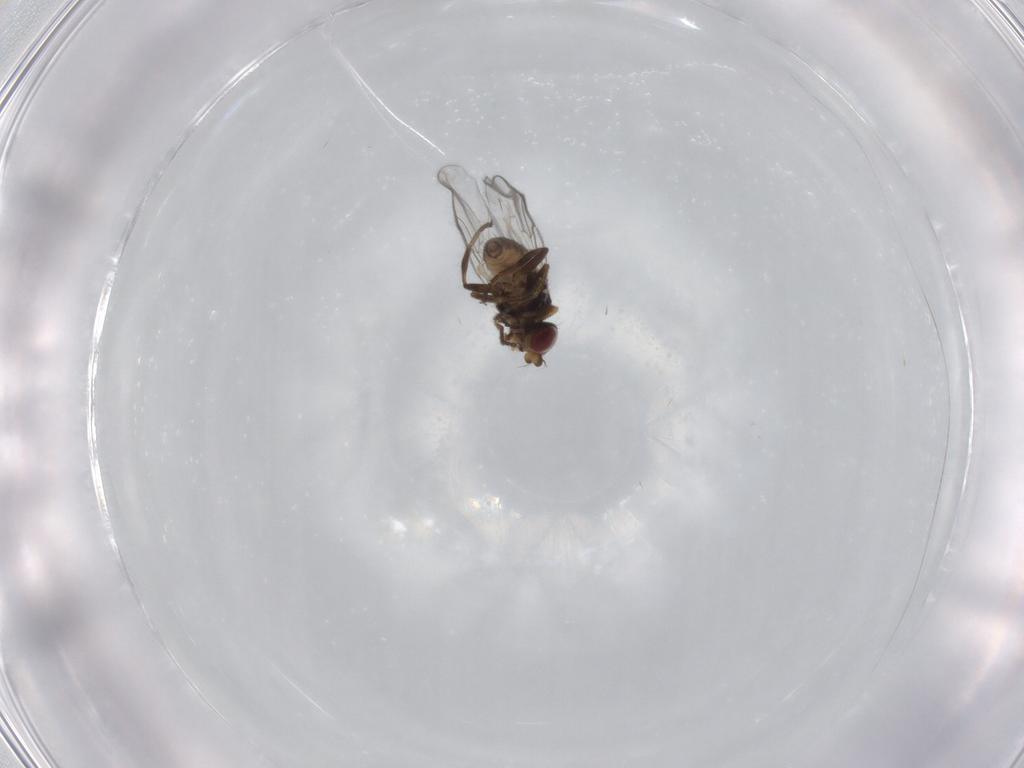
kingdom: Animalia
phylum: Arthropoda
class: Insecta
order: Diptera
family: Chloropidae
